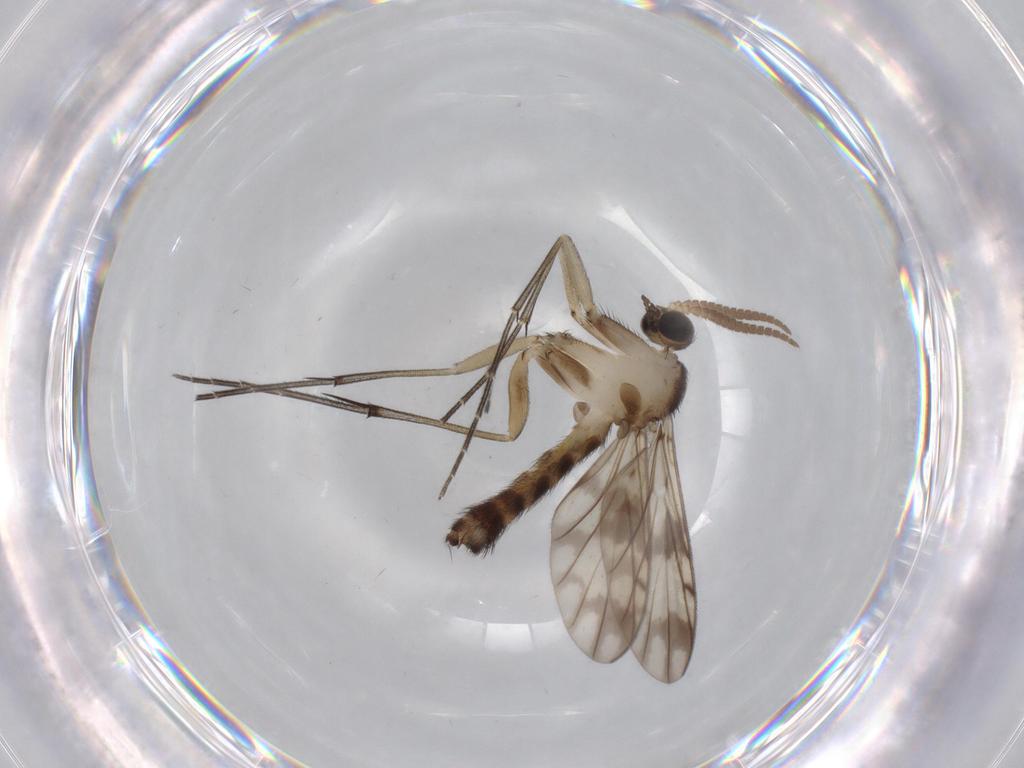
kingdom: Animalia
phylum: Arthropoda
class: Insecta
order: Diptera
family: Keroplatidae
